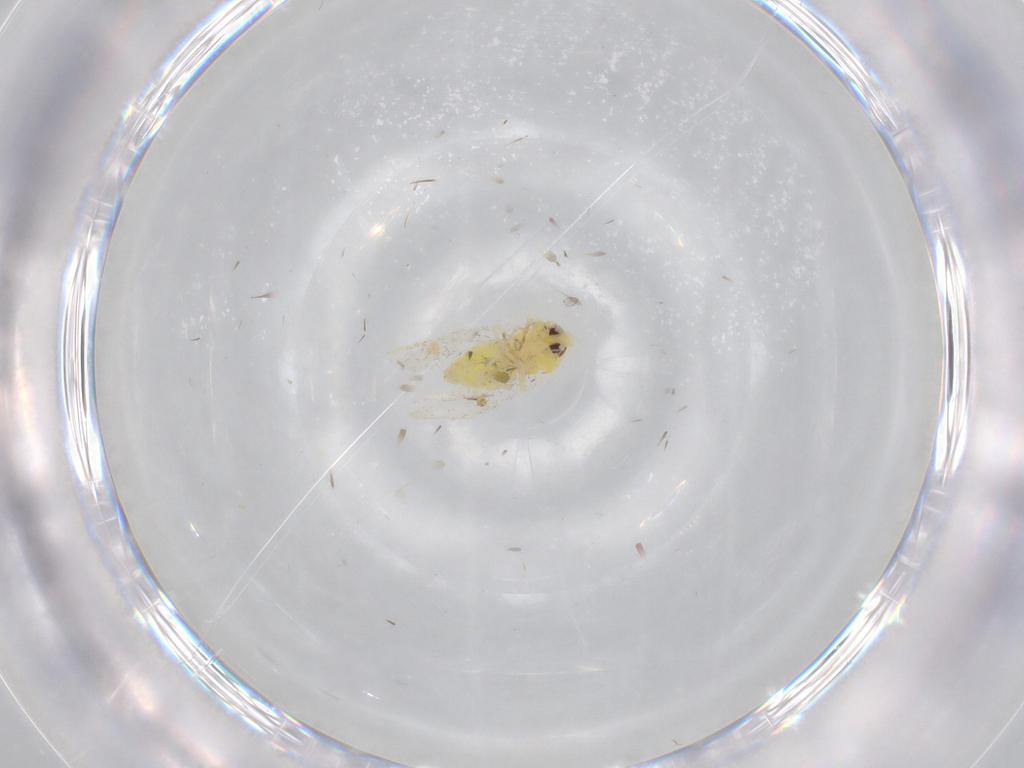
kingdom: Animalia
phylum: Arthropoda
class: Insecta
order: Hemiptera
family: Aleyrodidae
